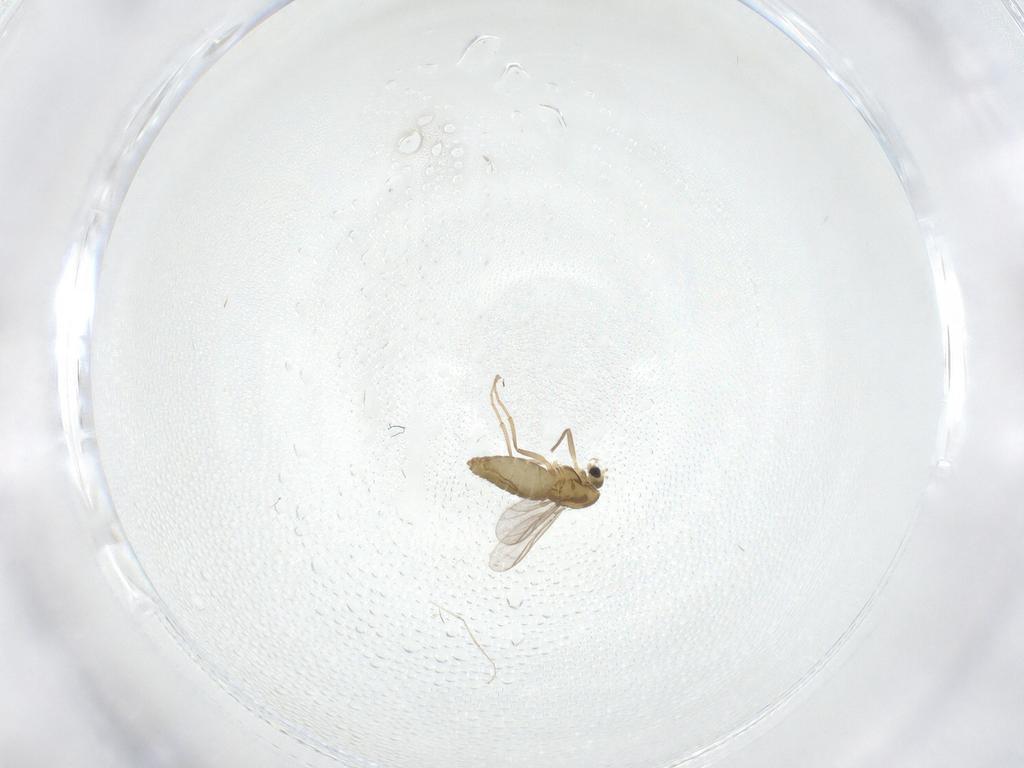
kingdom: Animalia
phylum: Arthropoda
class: Insecta
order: Diptera
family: Chironomidae
